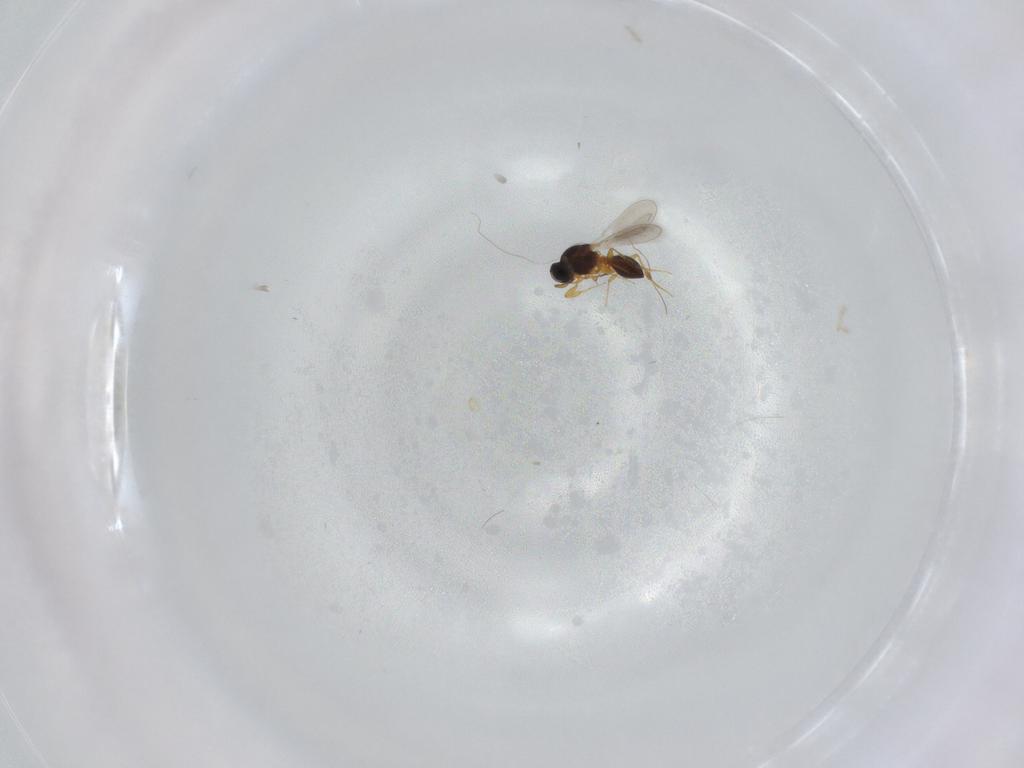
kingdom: Animalia
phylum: Arthropoda
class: Insecta
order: Hymenoptera
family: Platygastridae
